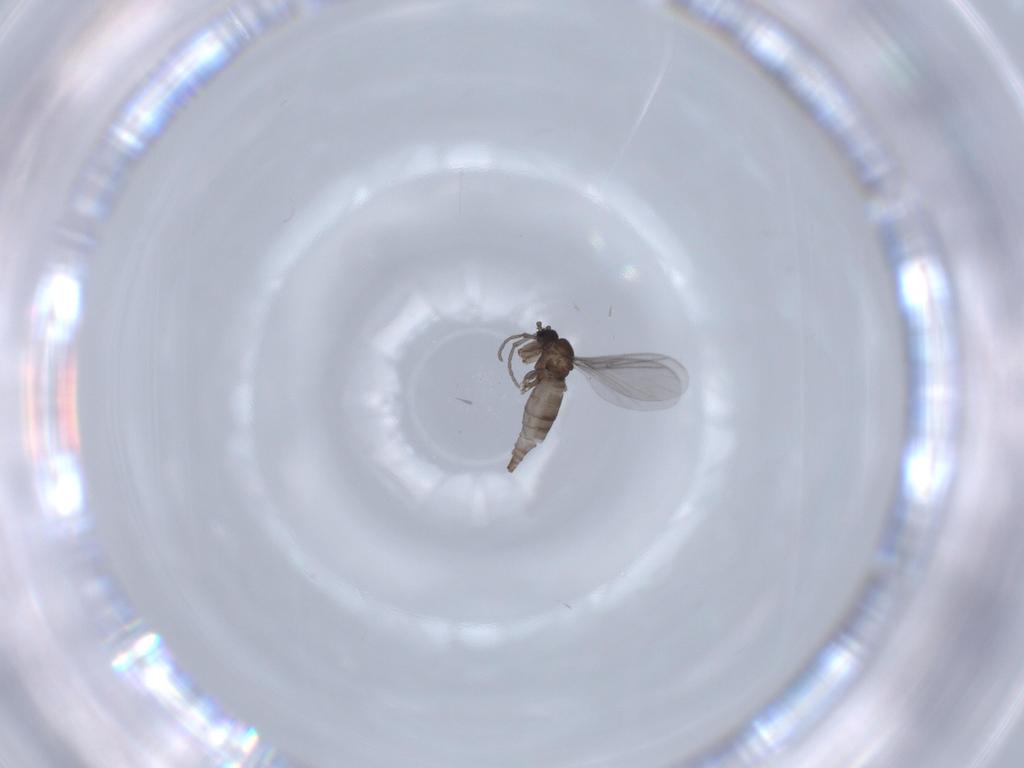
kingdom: Animalia
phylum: Arthropoda
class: Insecta
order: Diptera
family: Sciaridae
